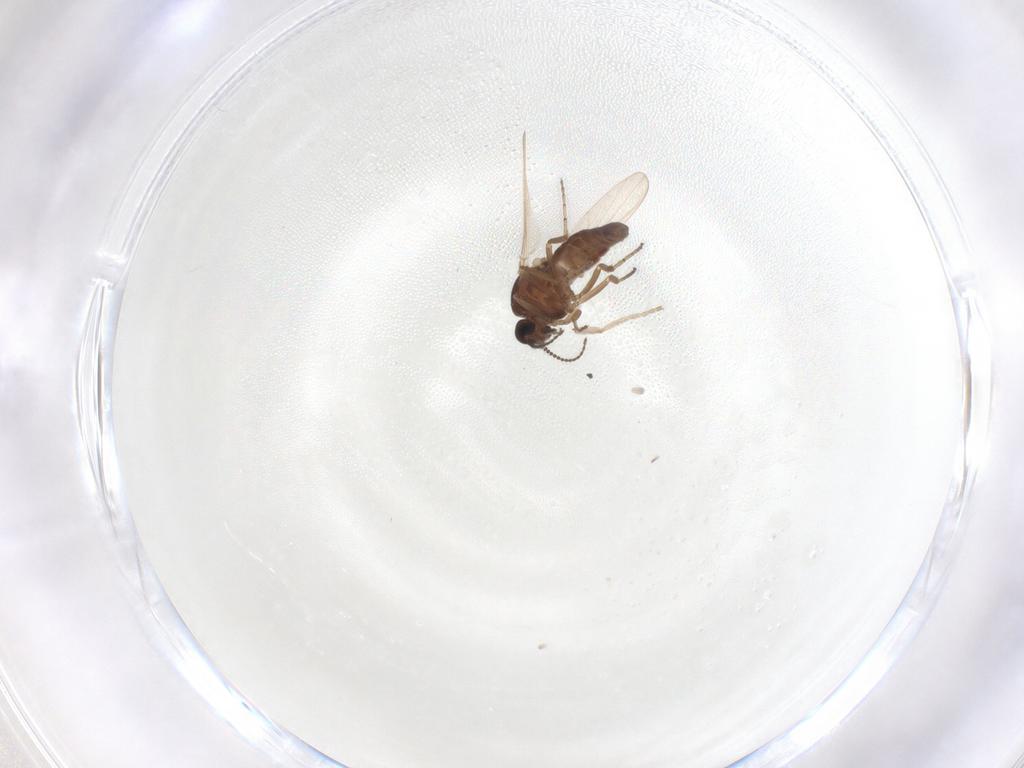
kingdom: Animalia
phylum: Arthropoda
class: Insecta
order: Diptera
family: Ceratopogonidae
